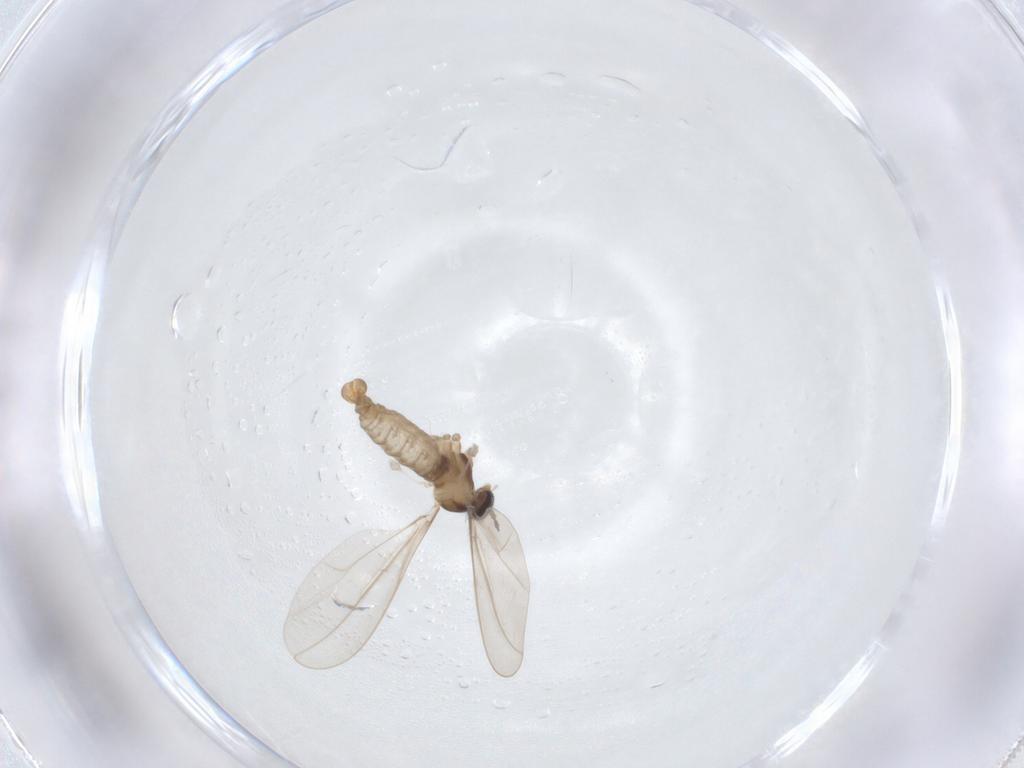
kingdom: Animalia
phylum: Arthropoda
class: Insecta
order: Diptera
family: Cecidomyiidae
